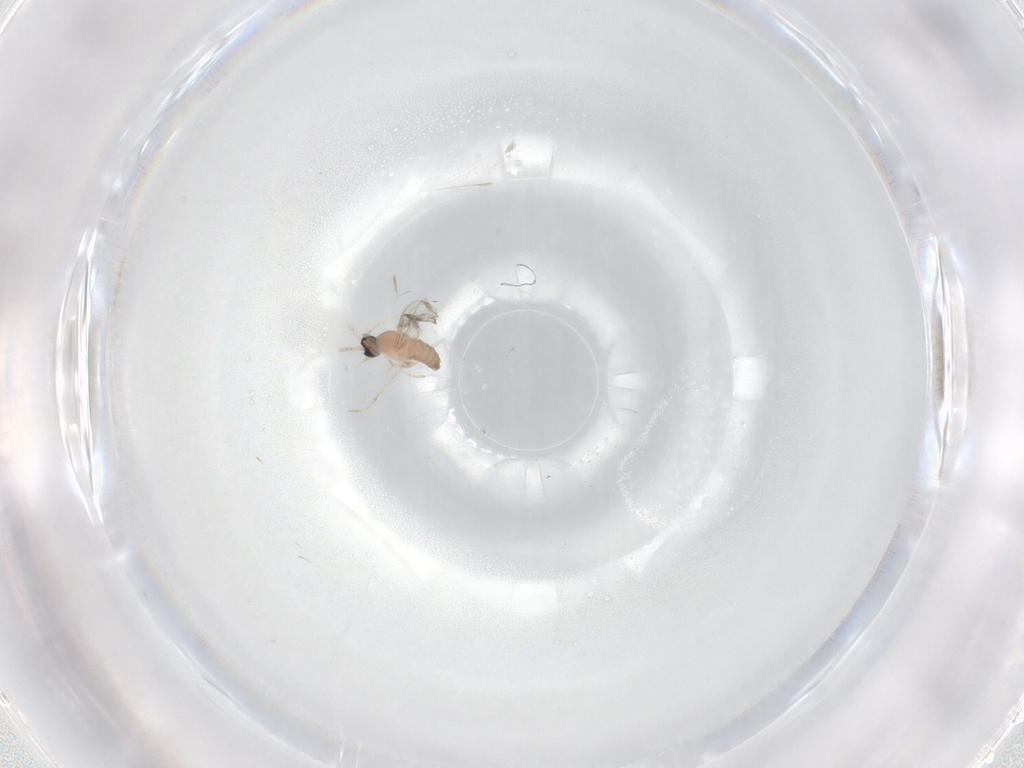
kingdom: Animalia
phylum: Arthropoda
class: Insecta
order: Diptera
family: Cecidomyiidae
